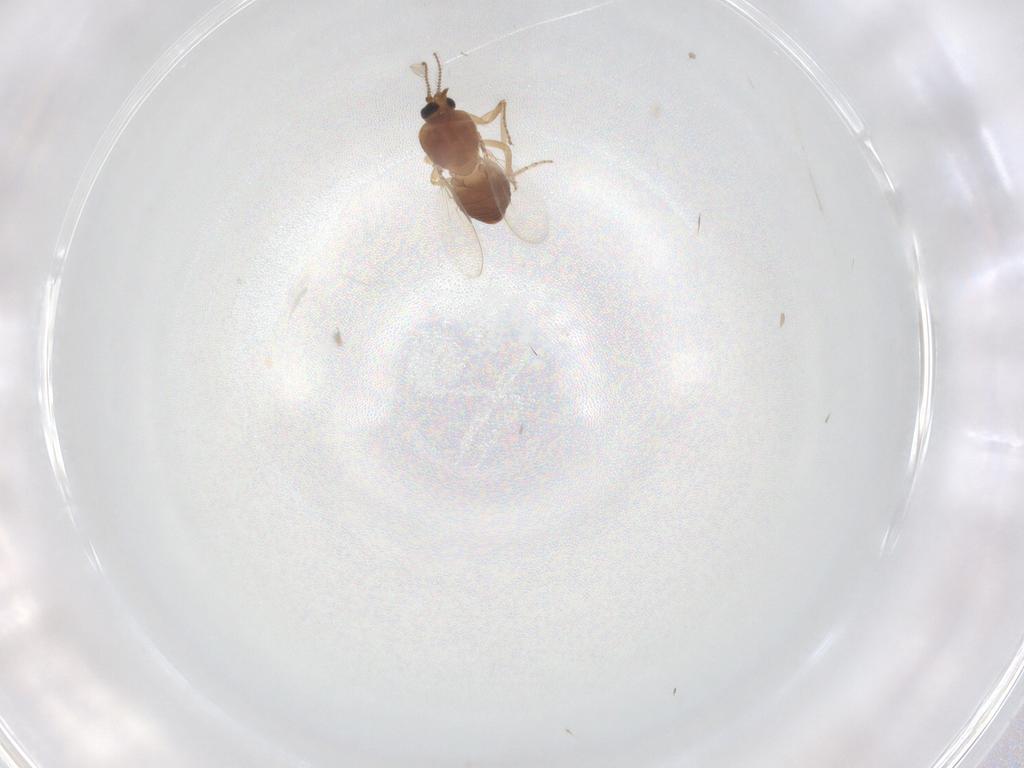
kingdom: Animalia
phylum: Arthropoda
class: Insecta
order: Diptera
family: Ceratopogonidae
